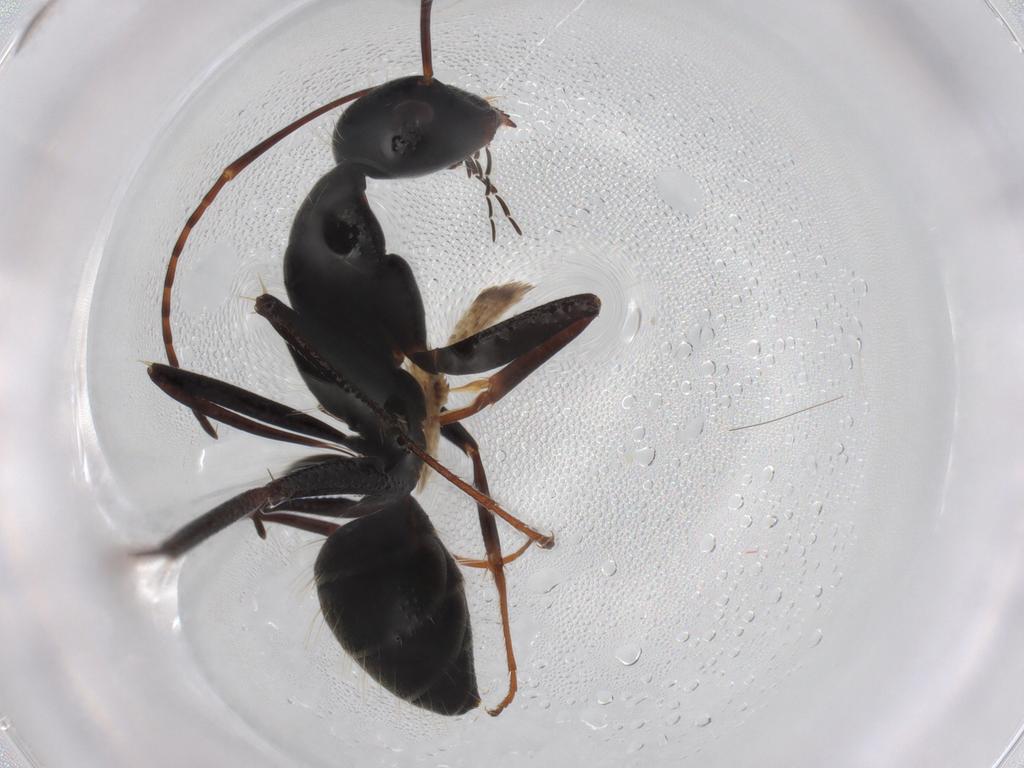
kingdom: Animalia
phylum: Arthropoda
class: Insecta
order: Hymenoptera
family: Formicidae
